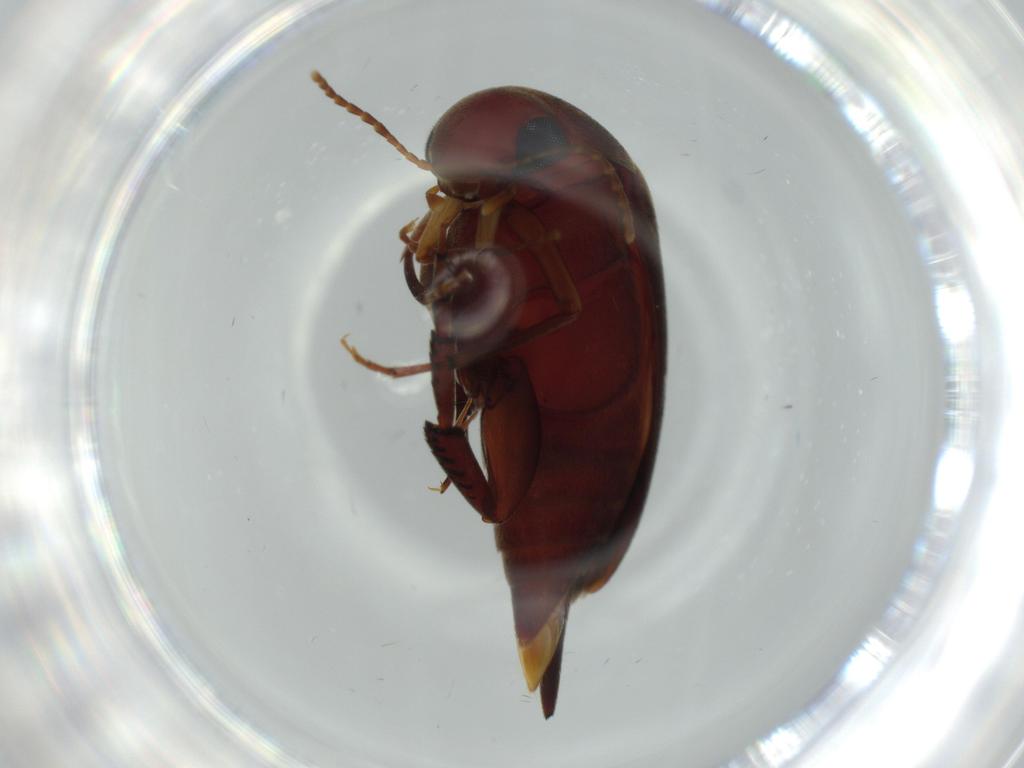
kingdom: Animalia
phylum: Arthropoda
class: Insecta
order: Coleoptera
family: Mordellidae
